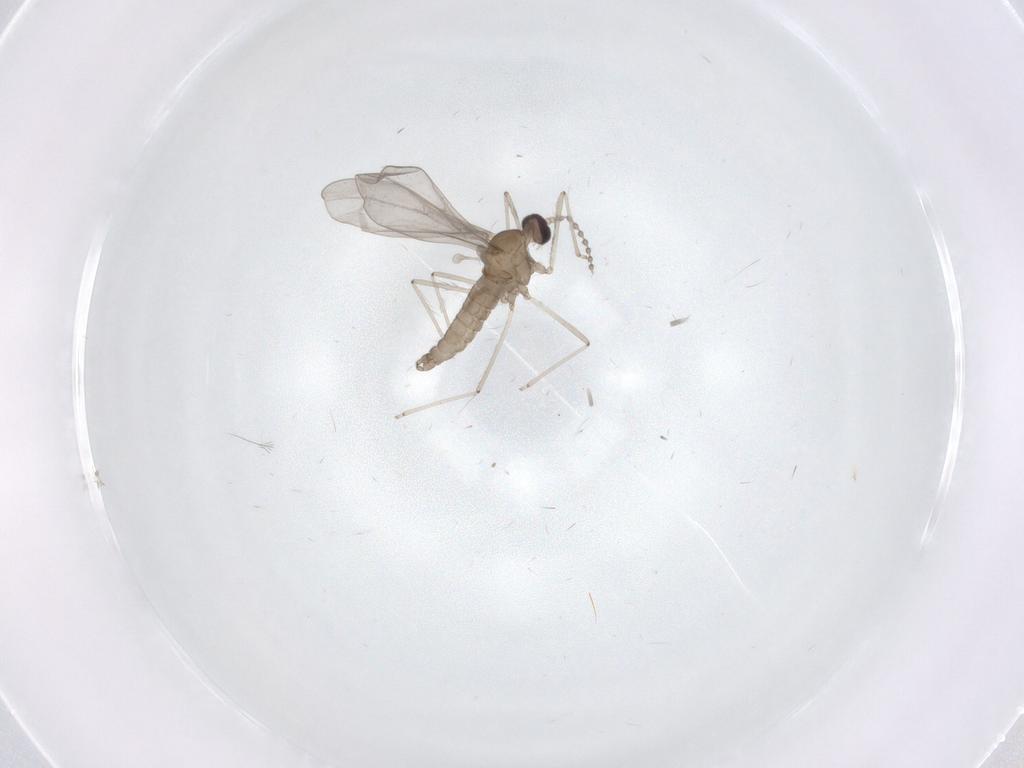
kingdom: Animalia
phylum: Arthropoda
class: Insecta
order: Diptera
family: Cecidomyiidae
